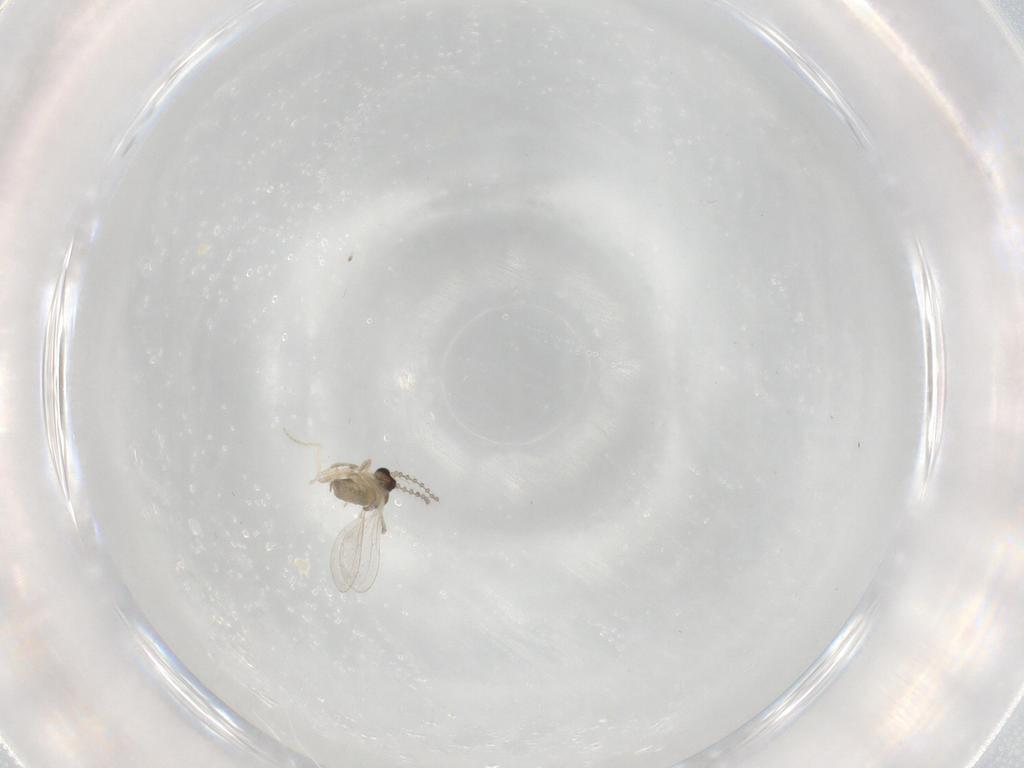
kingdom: Animalia
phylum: Arthropoda
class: Insecta
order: Diptera
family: Cecidomyiidae
